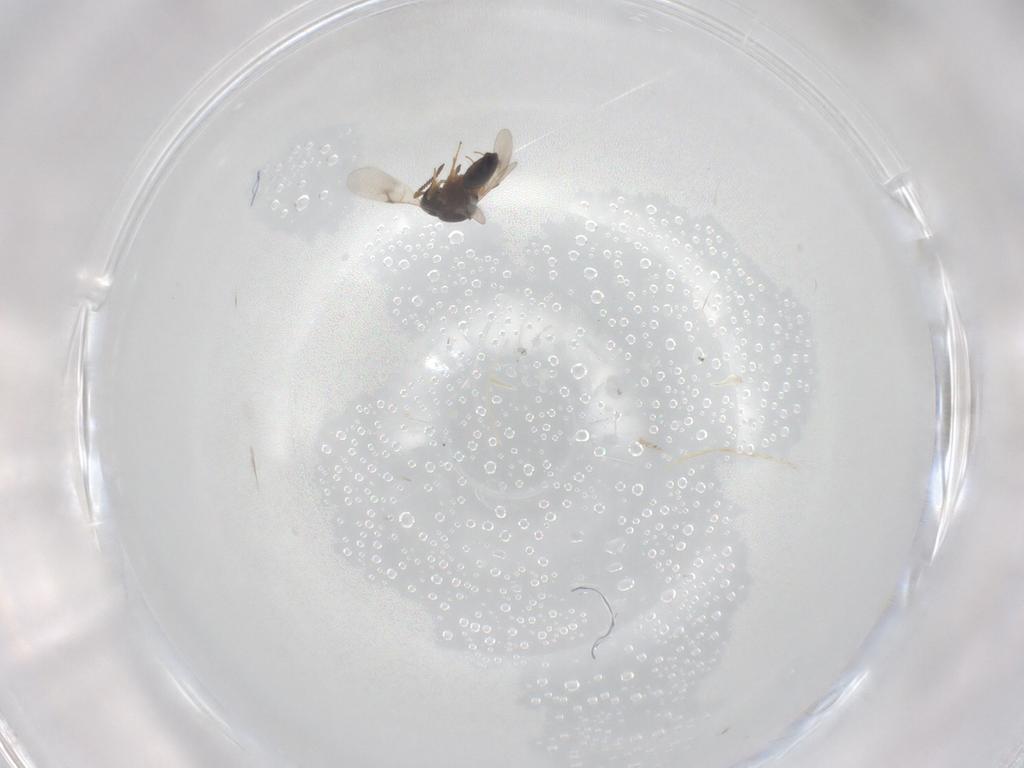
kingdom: Animalia
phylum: Arthropoda
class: Arachnida
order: Araneae
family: Pholcidae
